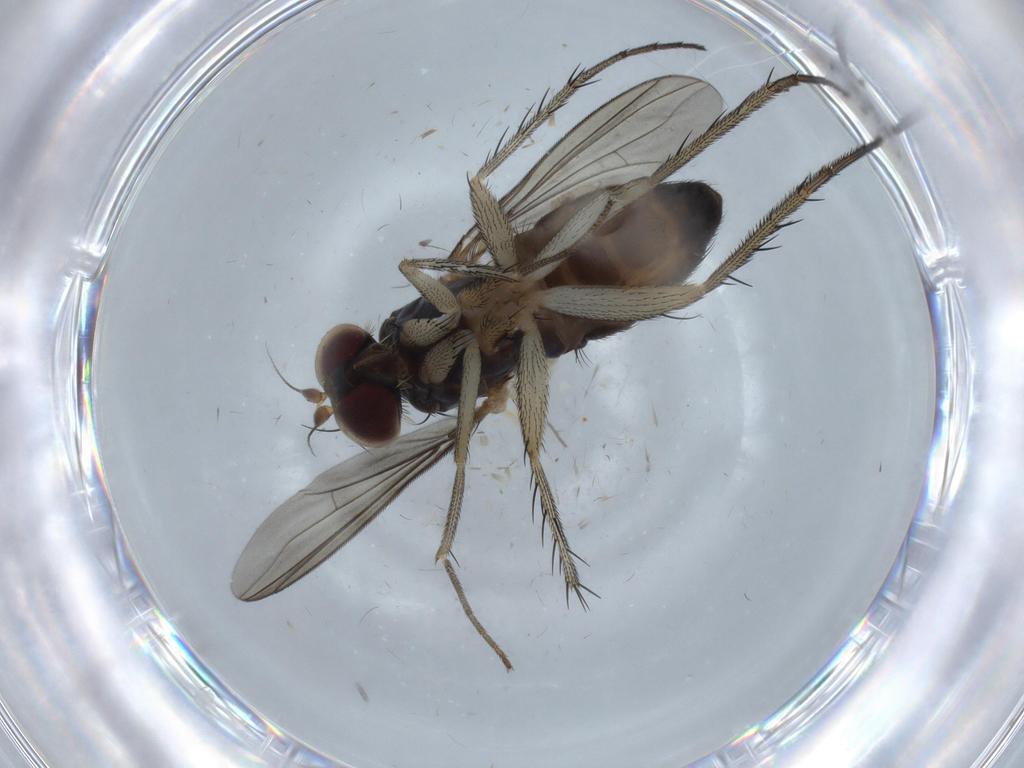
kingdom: Animalia
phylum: Arthropoda
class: Insecta
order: Diptera
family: Dolichopodidae
